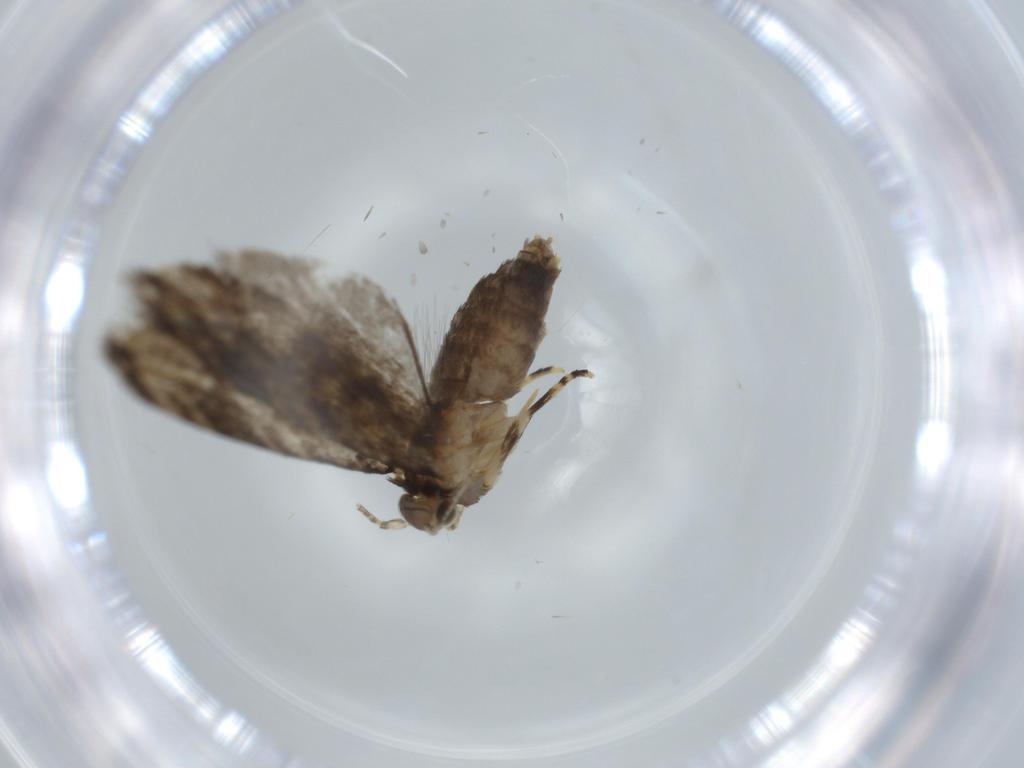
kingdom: Animalia
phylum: Arthropoda
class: Insecta
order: Lepidoptera
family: Tineidae
